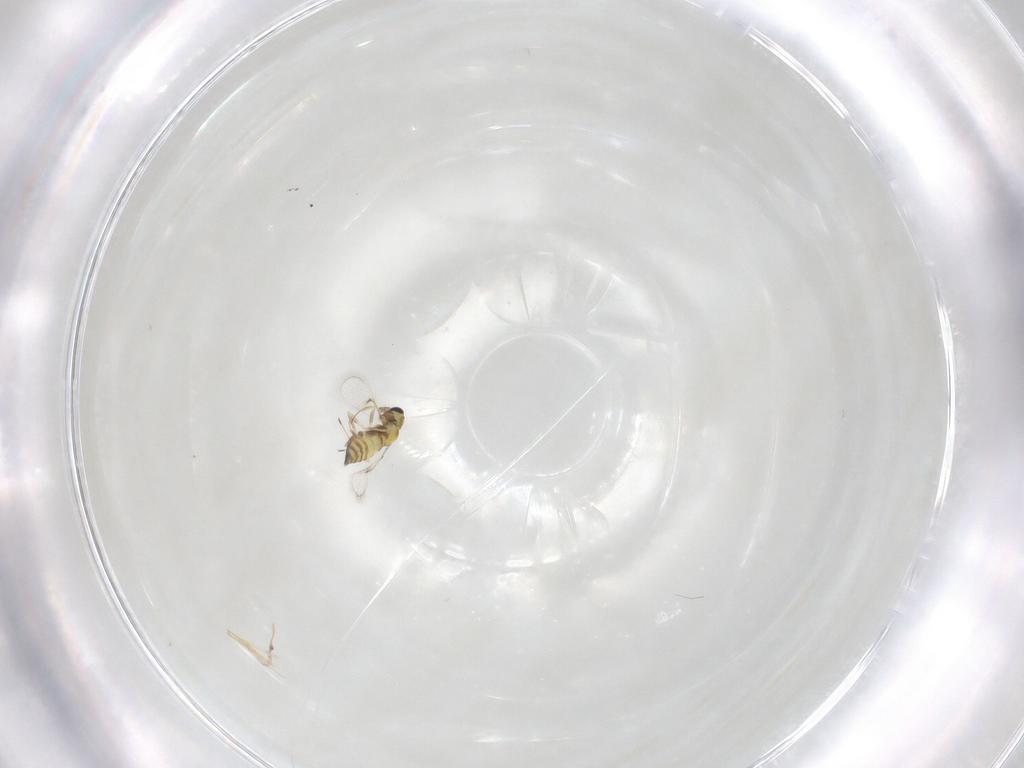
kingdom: Animalia
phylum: Arthropoda
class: Insecta
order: Hymenoptera
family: Trichogrammatidae
